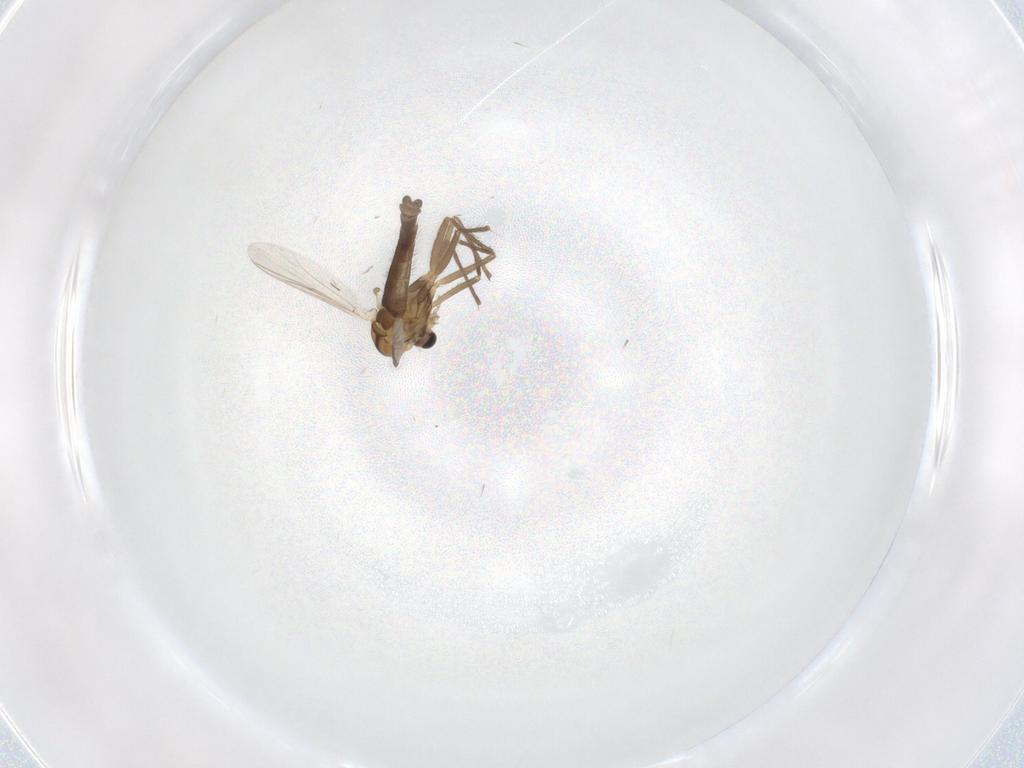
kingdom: Animalia
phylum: Arthropoda
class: Insecta
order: Diptera
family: Chironomidae
